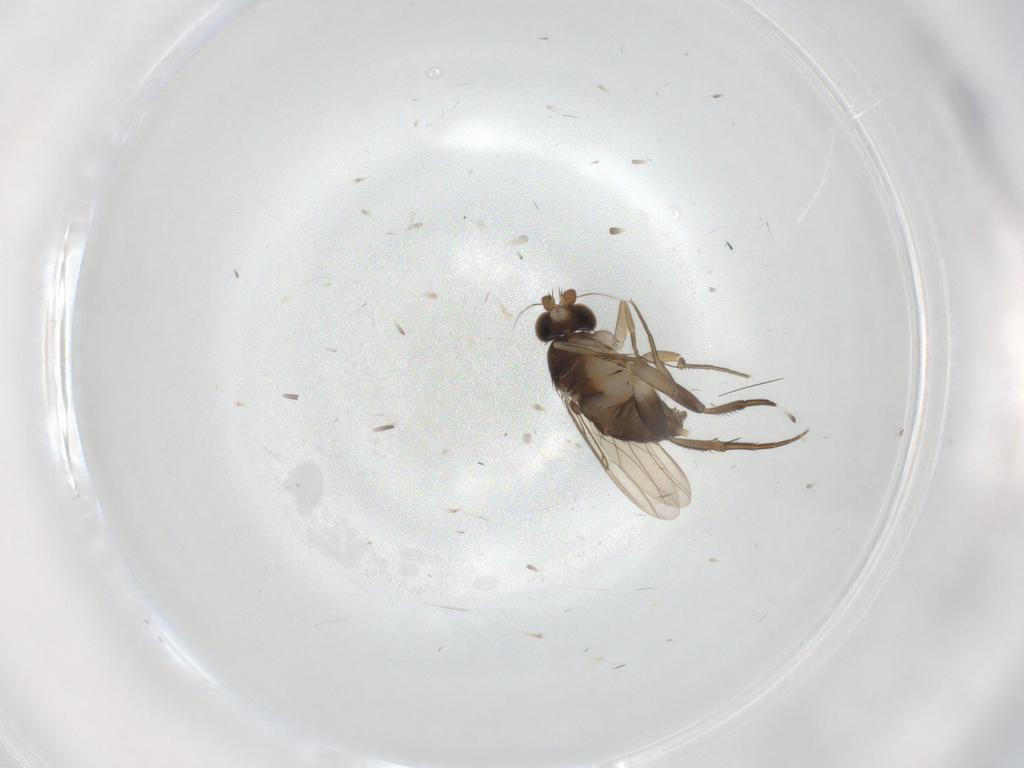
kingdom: Animalia
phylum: Arthropoda
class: Insecta
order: Diptera
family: Phoridae
